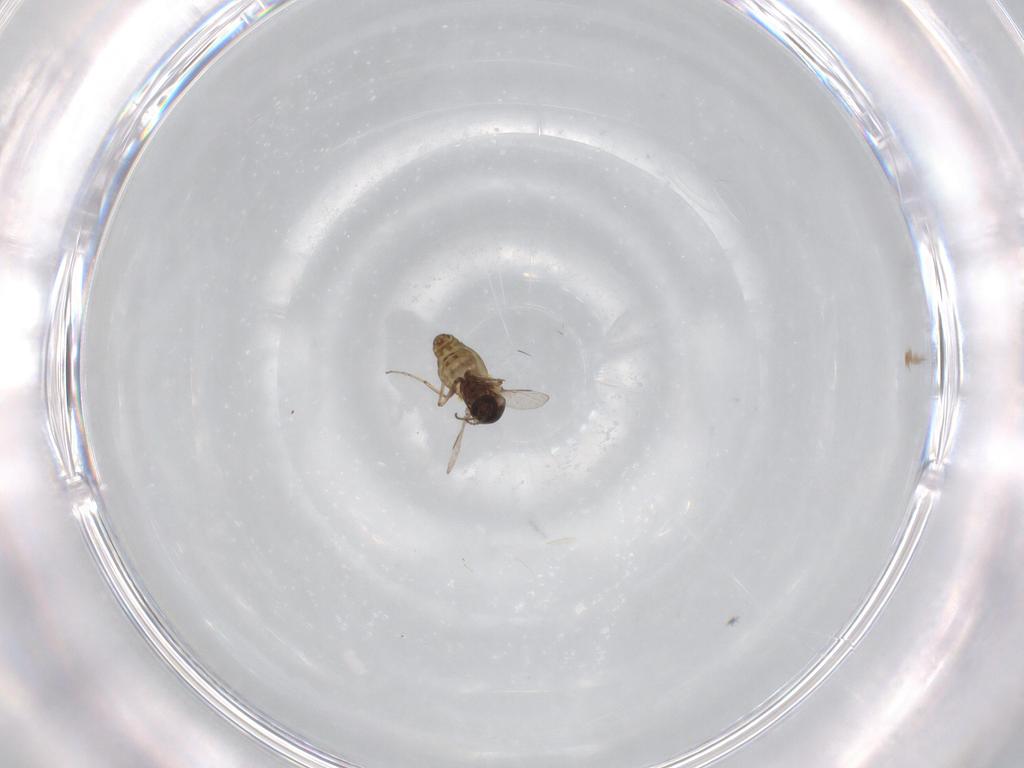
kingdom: Animalia
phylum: Arthropoda
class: Insecta
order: Diptera
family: Ceratopogonidae
